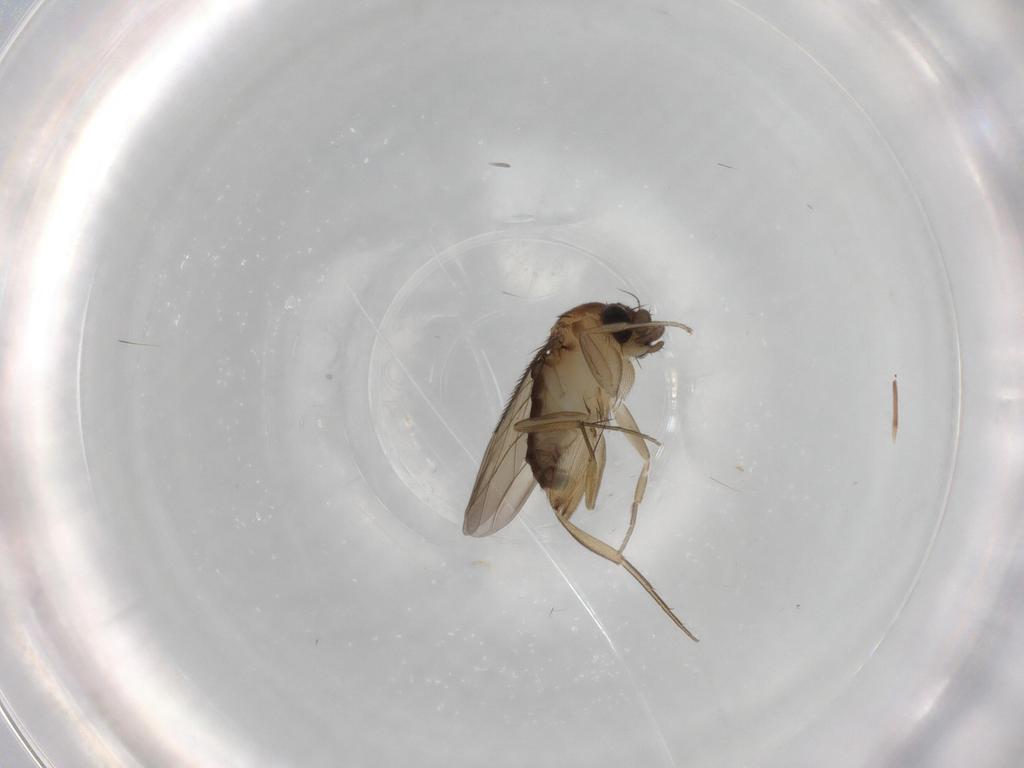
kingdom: Animalia
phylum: Arthropoda
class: Insecta
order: Diptera
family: Phoridae
